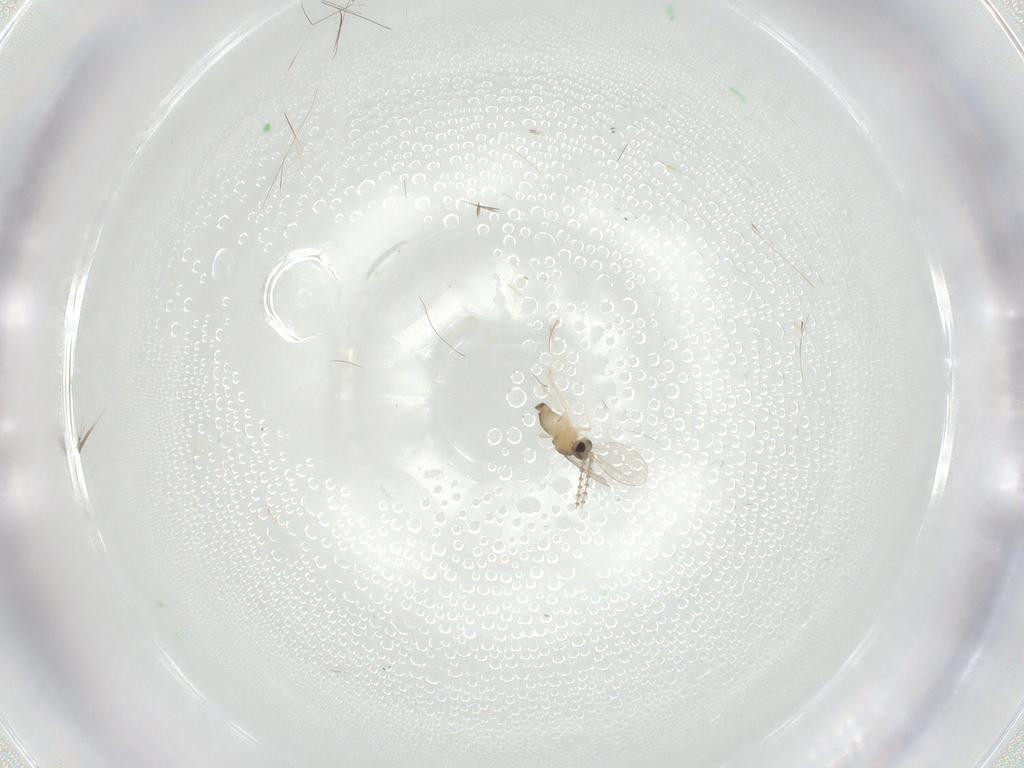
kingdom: Animalia
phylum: Arthropoda
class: Insecta
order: Diptera
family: Cecidomyiidae
